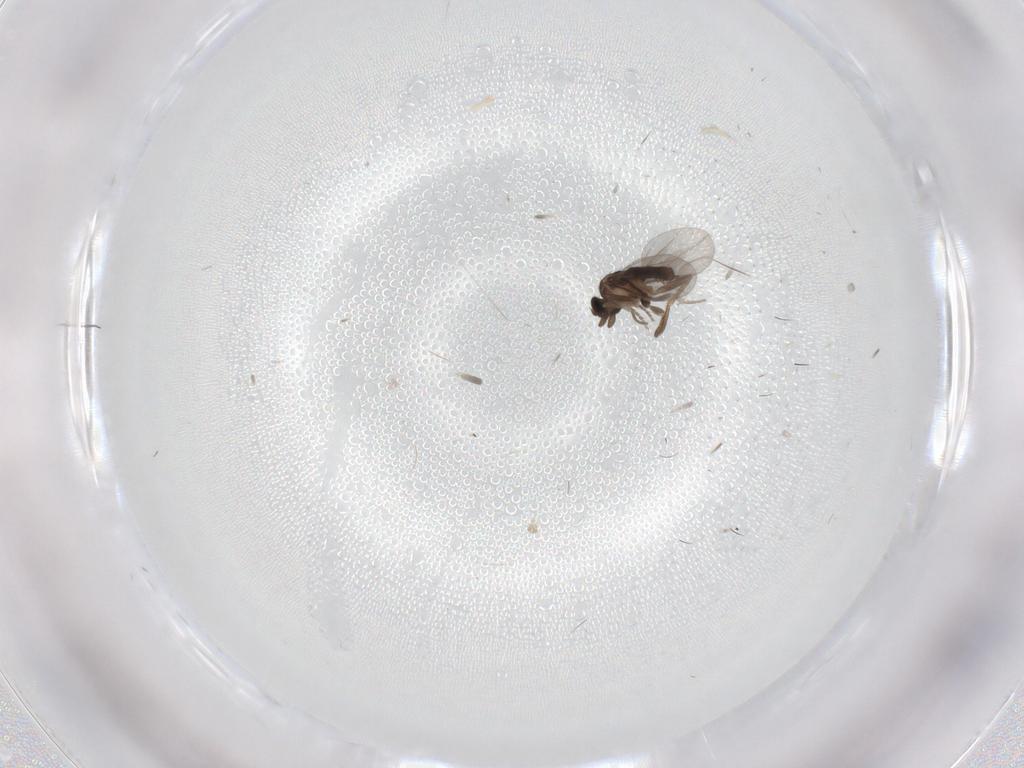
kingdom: Animalia
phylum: Arthropoda
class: Insecta
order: Diptera
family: Chironomidae
